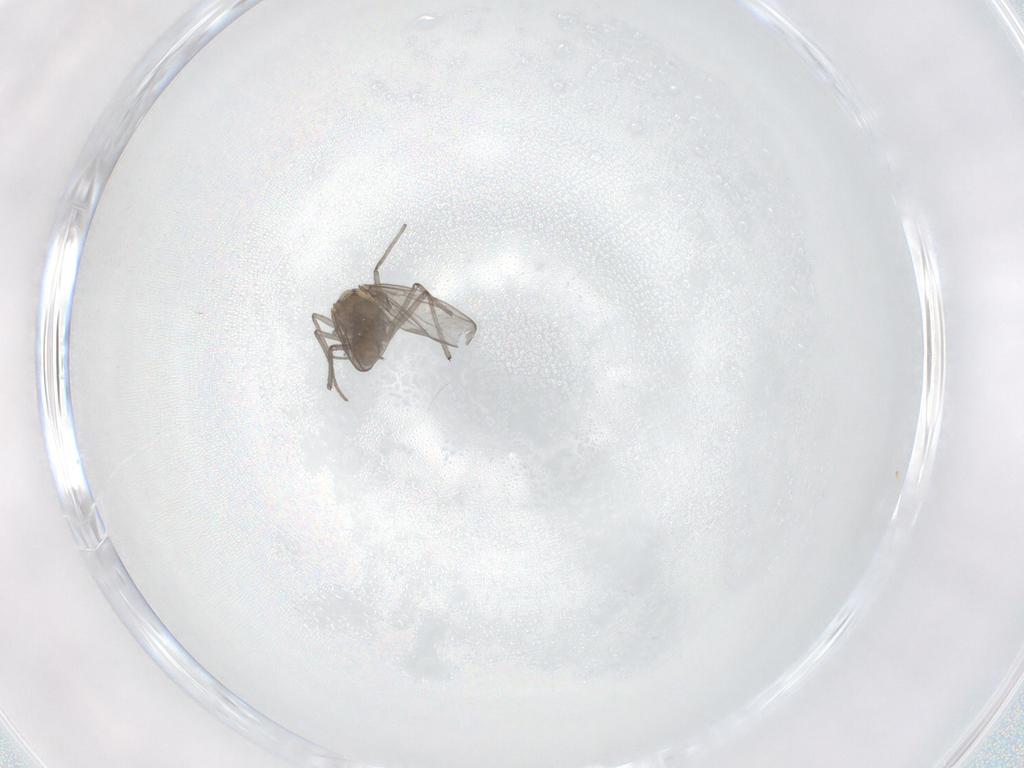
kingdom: Animalia
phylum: Arthropoda
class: Insecta
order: Diptera
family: Chironomidae
